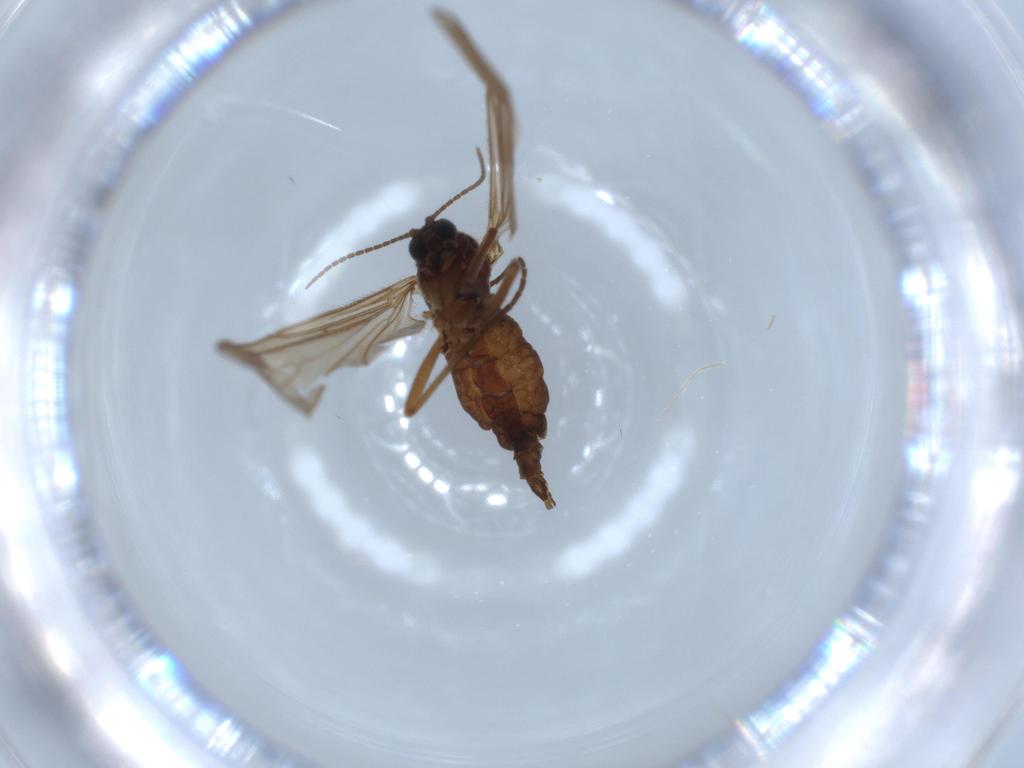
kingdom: Animalia
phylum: Arthropoda
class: Insecta
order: Diptera
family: Sciaridae
